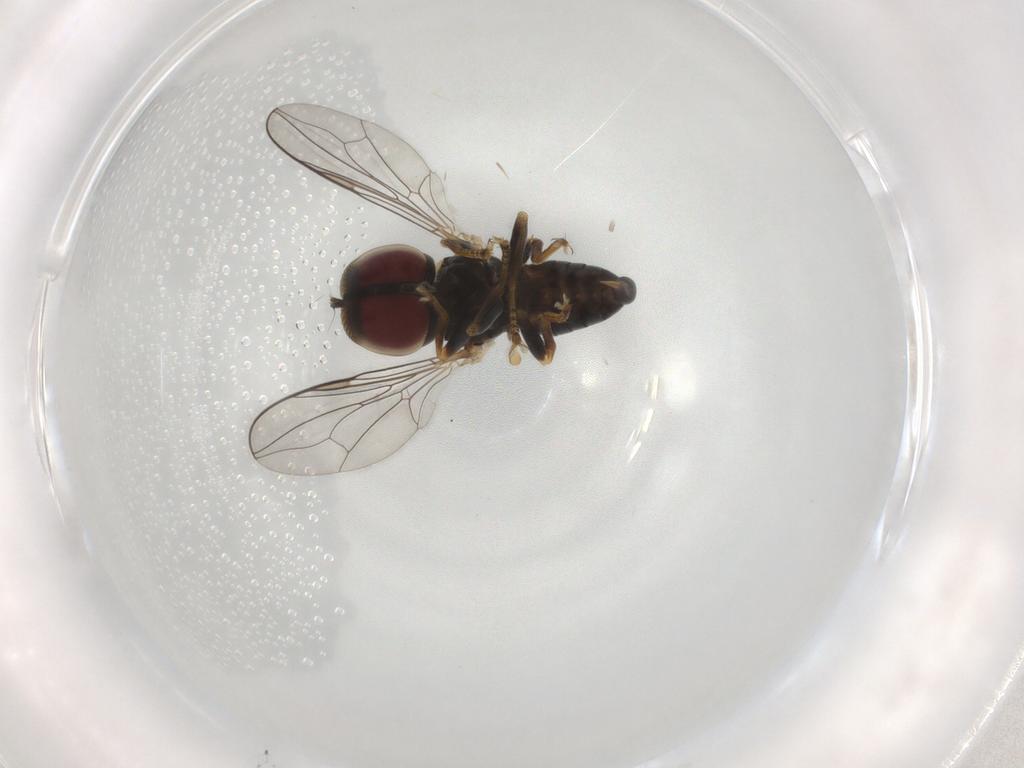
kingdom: Animalia
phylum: Arthropoda
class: Insecta
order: Diptera
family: Pipunculidae
